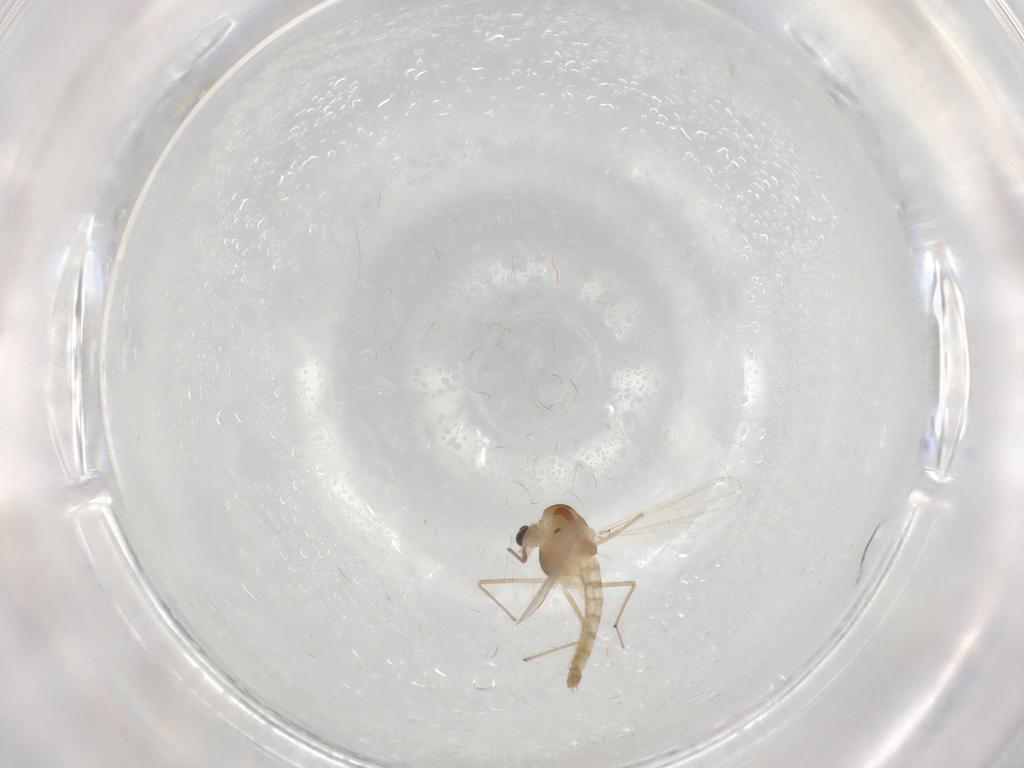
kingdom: Animalia
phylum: Arthropoda
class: Insecta
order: Diptera
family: Chironomidae
